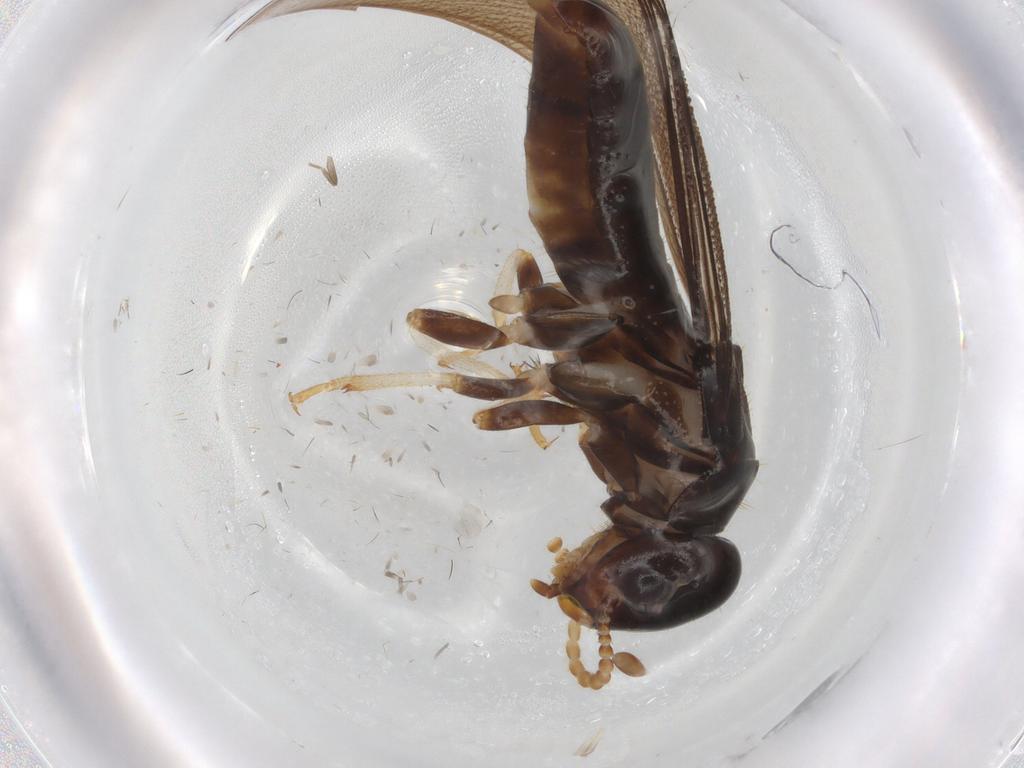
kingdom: Animalia
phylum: Arthropoda
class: Insecta
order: Blattodea
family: Kalotermitidae
